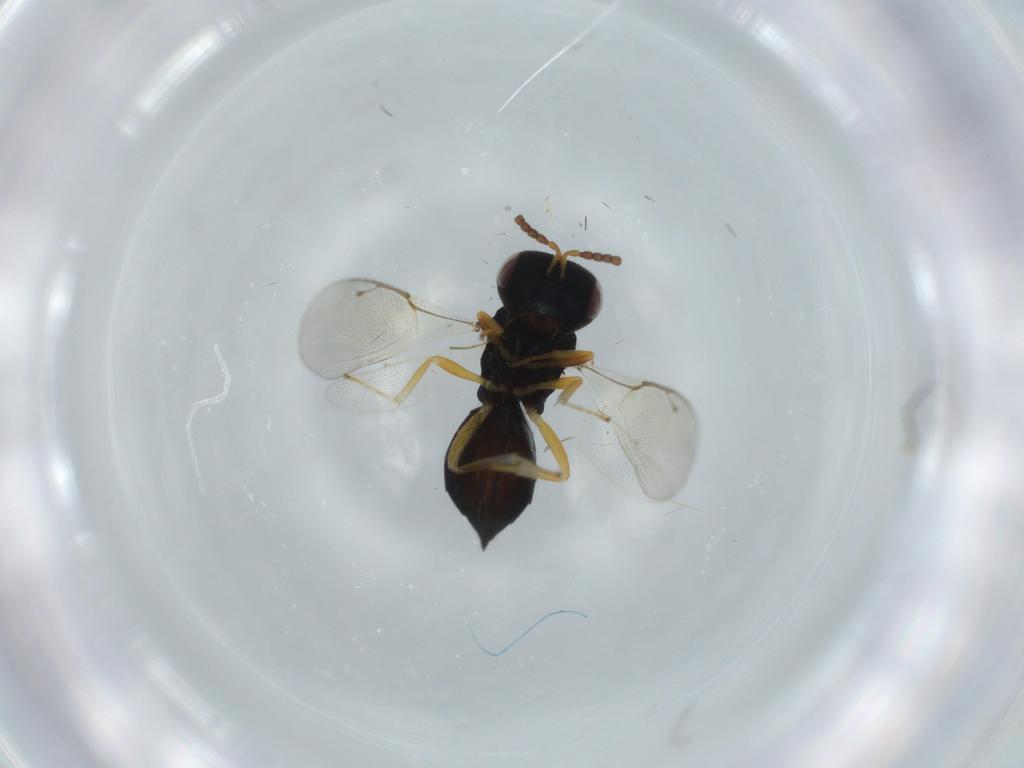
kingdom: Animalia
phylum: Arthropoda
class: Insecta
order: Hymenoptera
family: Pteromalidae
